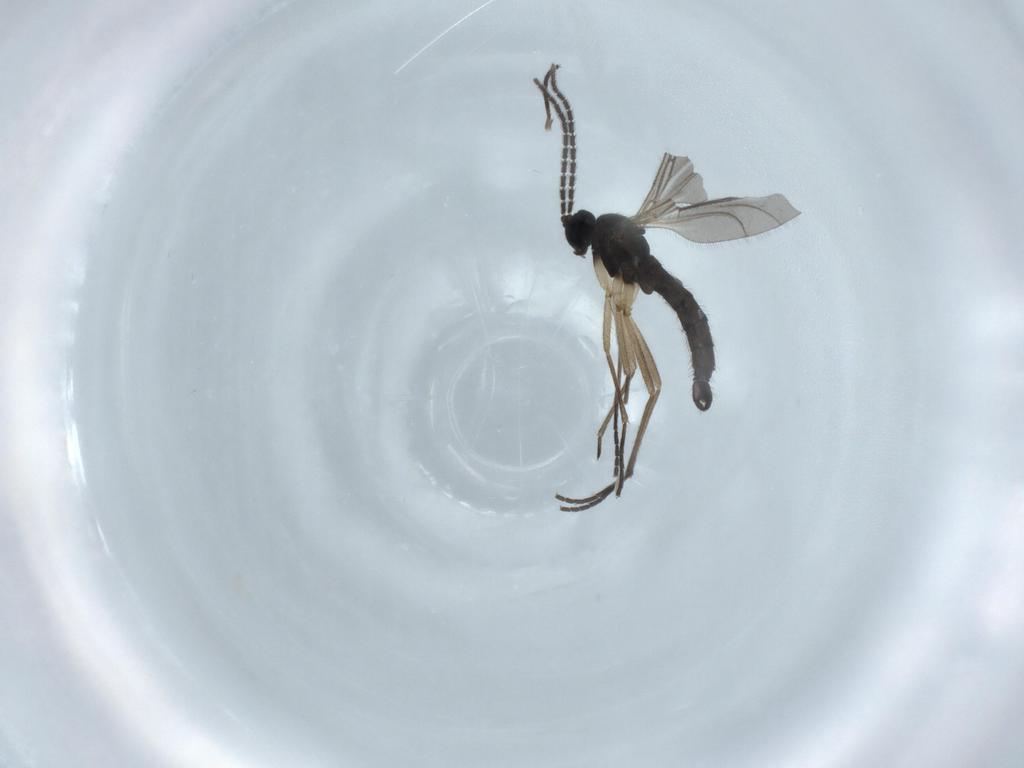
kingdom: Animalia
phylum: Arthropoda
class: Insecta
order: Diptera
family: Sciaridae
